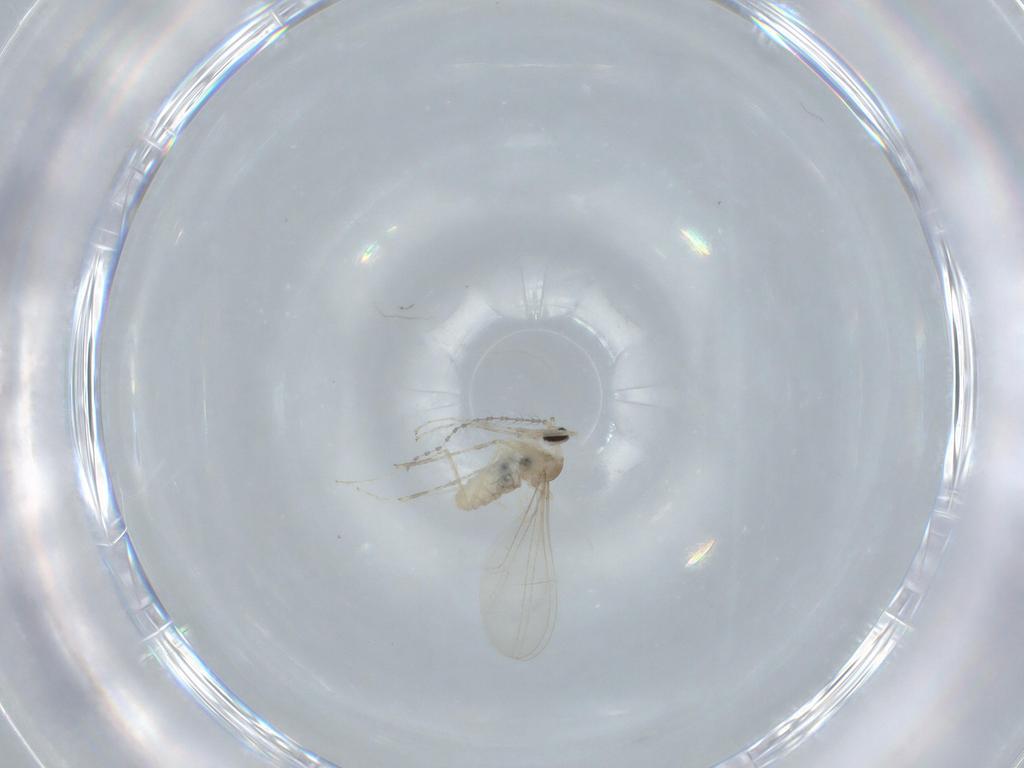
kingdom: Animalia
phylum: Arthropoda
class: Insecta
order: Diptera
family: Cecidomyiidae
